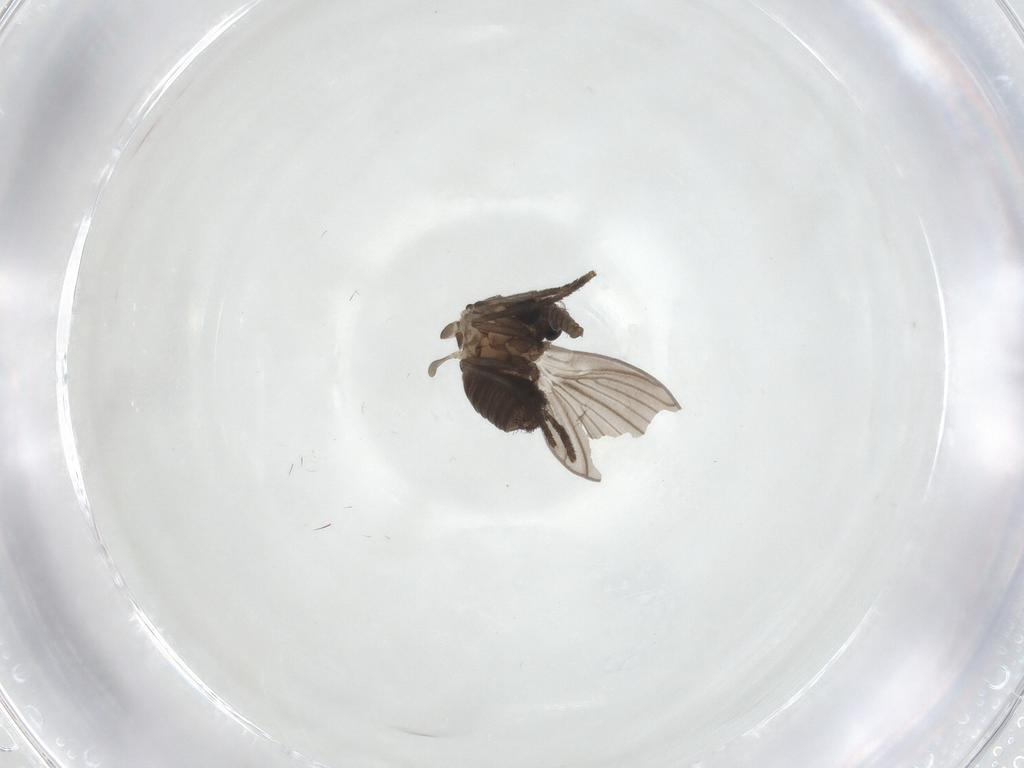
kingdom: Animalia
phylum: Arthropoda
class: Insecta
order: Diptera
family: Psychodidae
